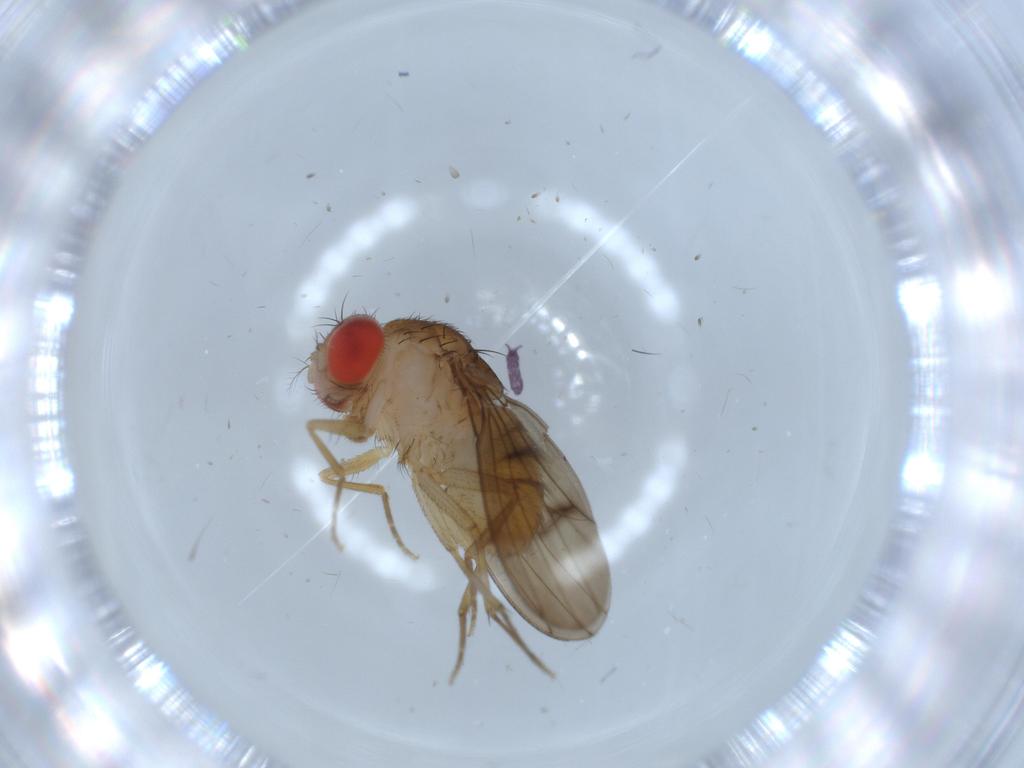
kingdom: Animalia
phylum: Arthropoda
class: Insecta
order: Diptera
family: Drosophilidae
